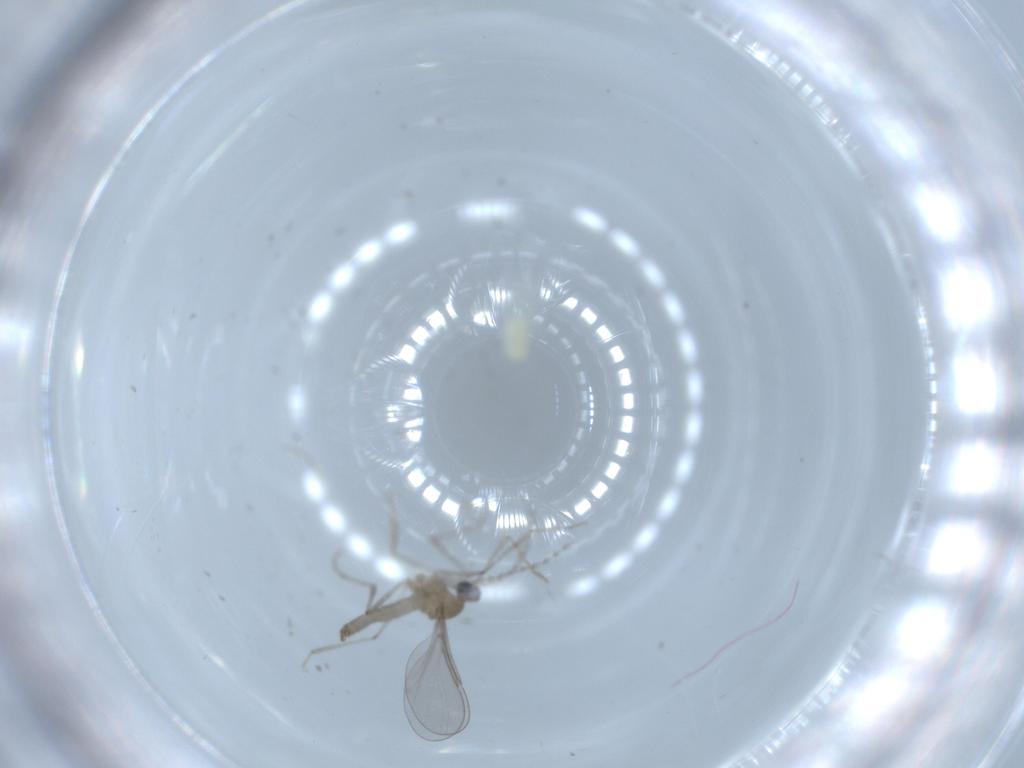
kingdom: Animalia
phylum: Arthropoda
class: Insecta
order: Diptera
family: Cecidomyiidae
